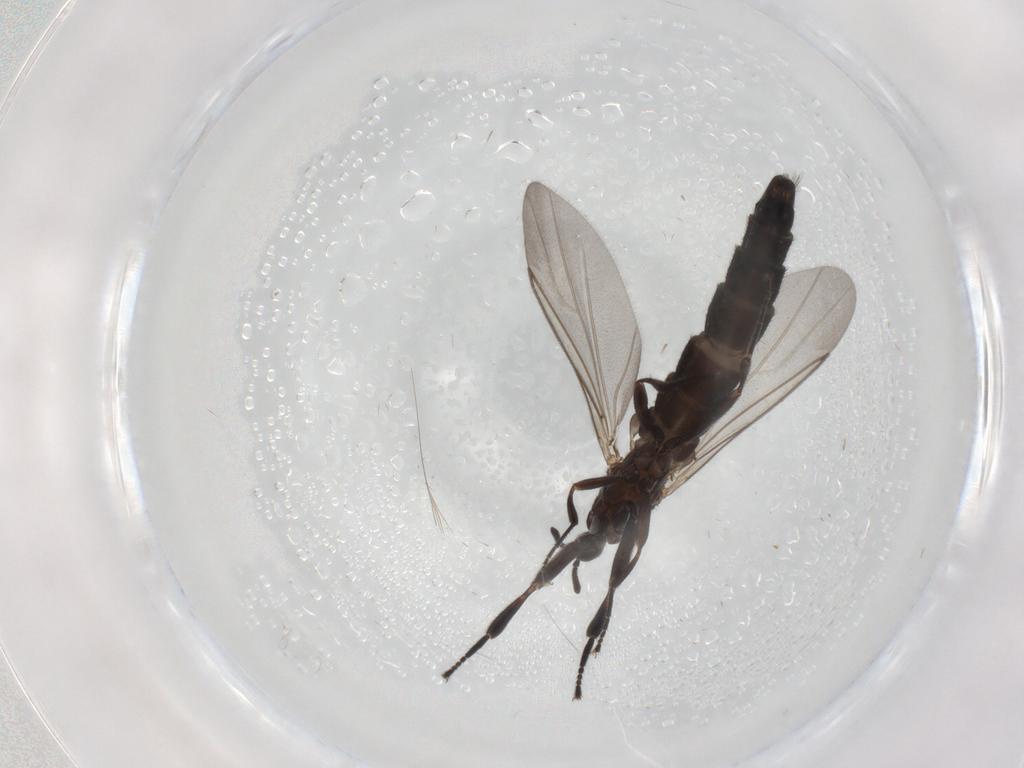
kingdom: Animalia
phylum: Arthropoda
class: Insecta
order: Diptera
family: Scatopsidae
